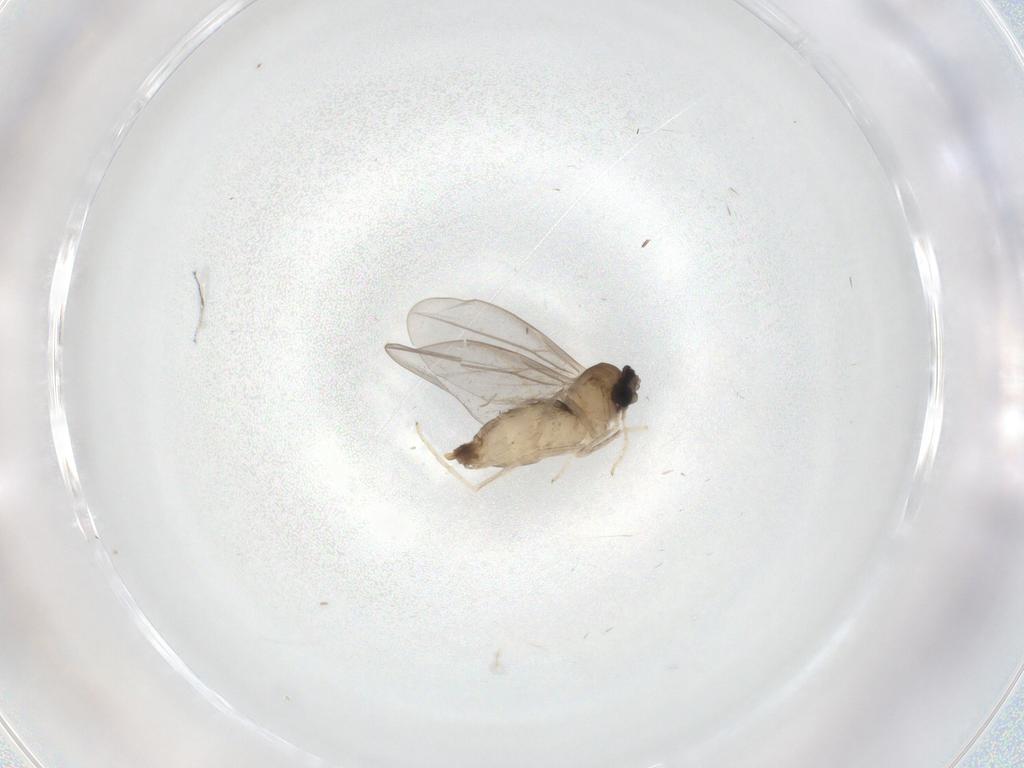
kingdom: Animalia
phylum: Arthropoda
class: Insecta
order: Diptera
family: Cecidomyiidae
